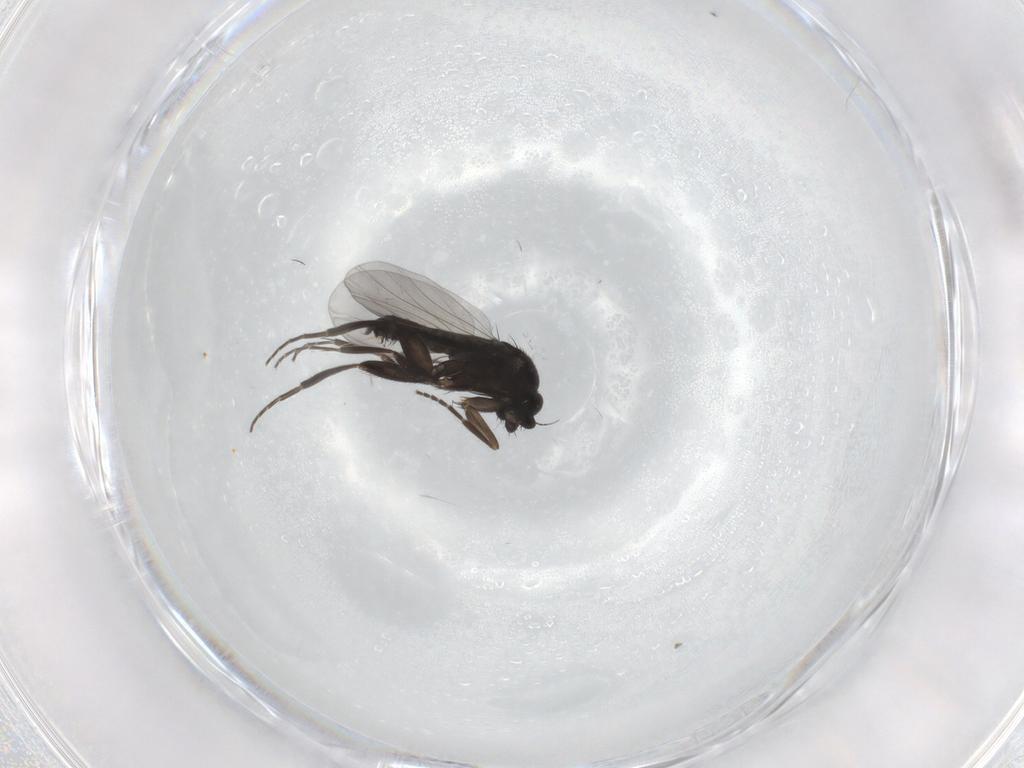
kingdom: Animalia
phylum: Arthropoda
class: Insecta
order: Diptera
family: Phoridae
